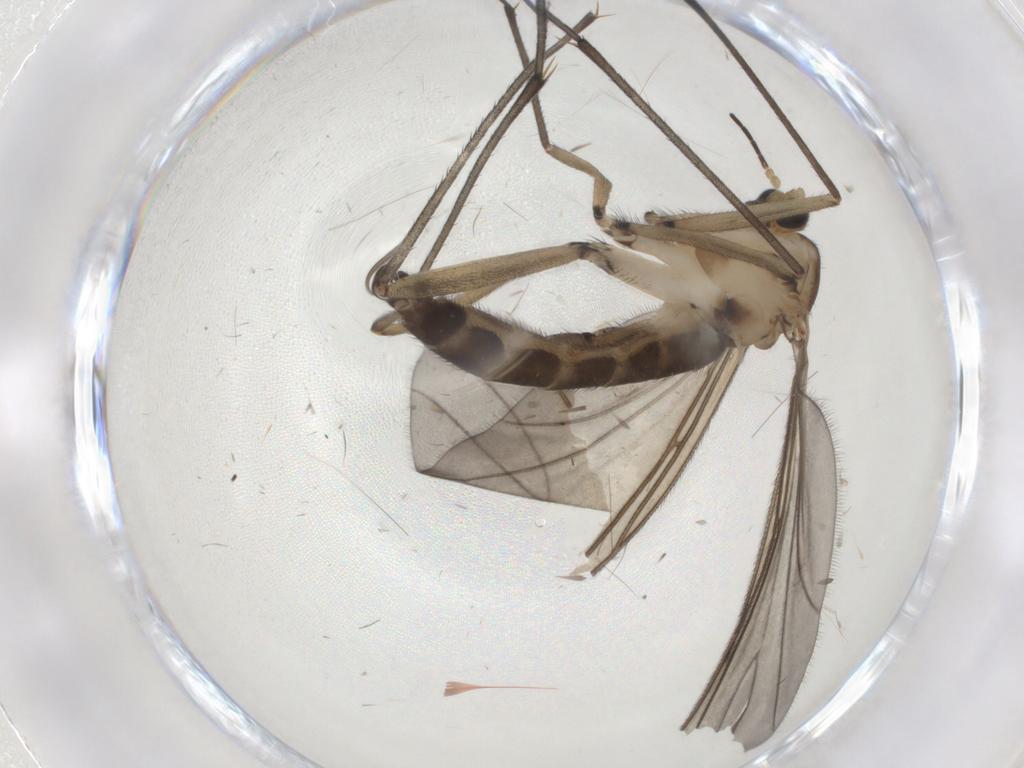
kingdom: Animalia
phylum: Arthropoda
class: Insecta
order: Diptera
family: Sciaridae
